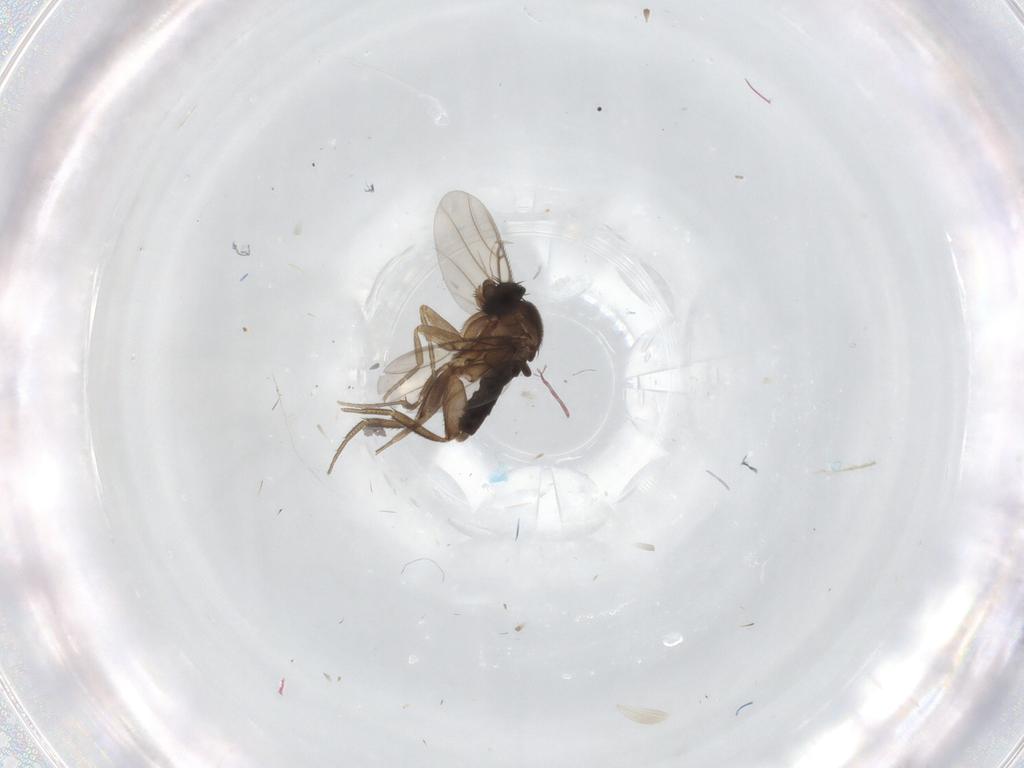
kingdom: Animalia
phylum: Arthropoda
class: Insecta
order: Diptera
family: Phoridae
